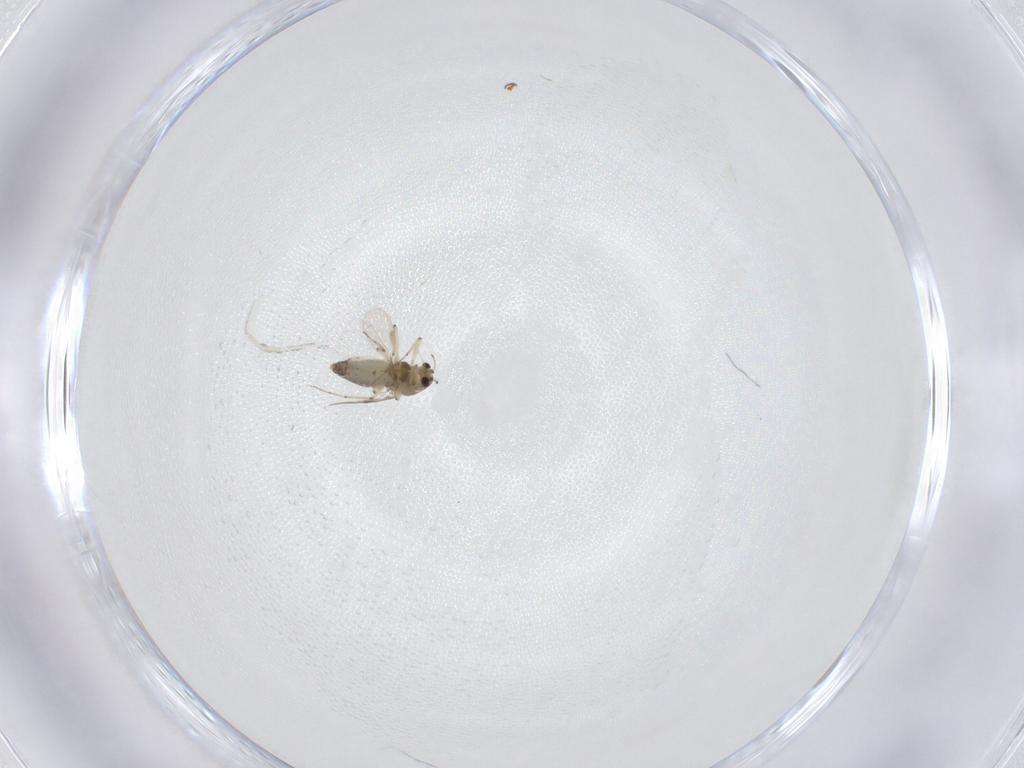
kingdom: Animalia
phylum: Arthropoda
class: Insecta
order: Diptera
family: Chironomidae
